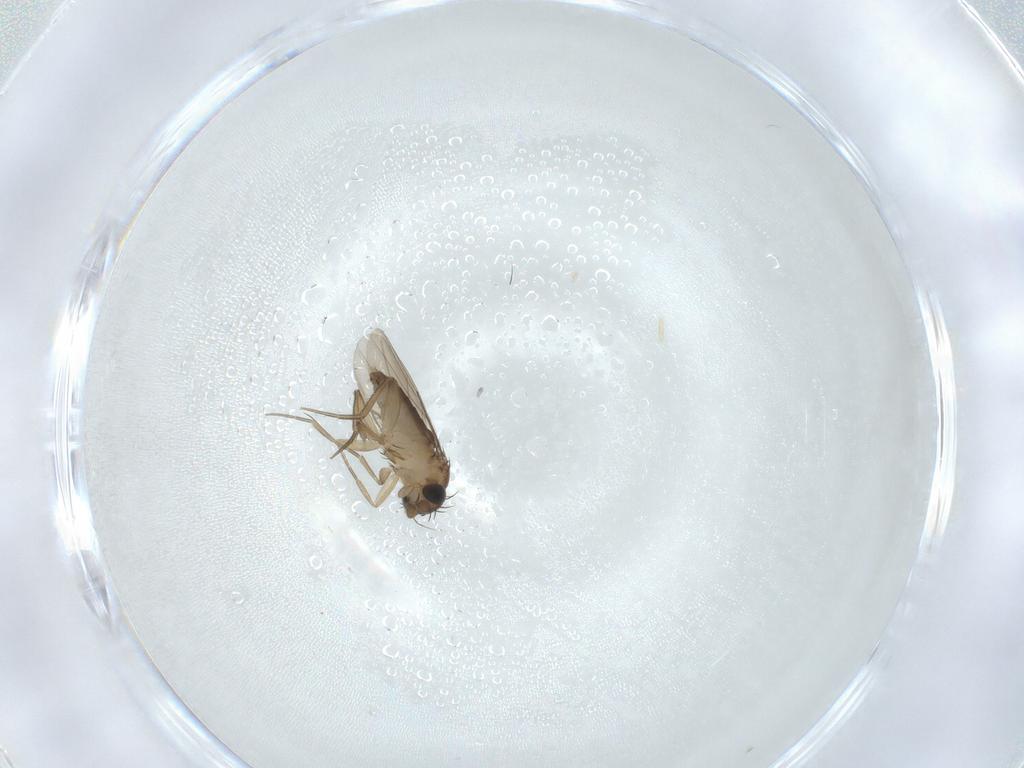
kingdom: Animalia
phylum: Arthropoda
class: Insecta
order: Diptera
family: Phoridae
